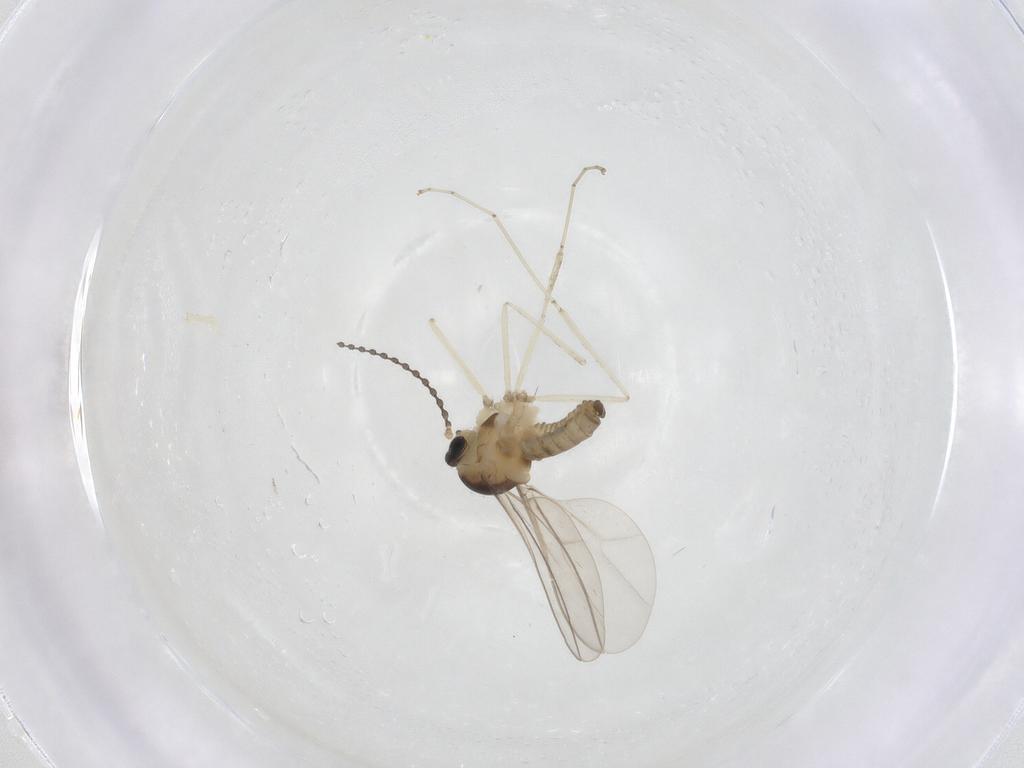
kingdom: Animalia
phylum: Arthropoda
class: Insecta
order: Diptera
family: Cecidomyiidae
